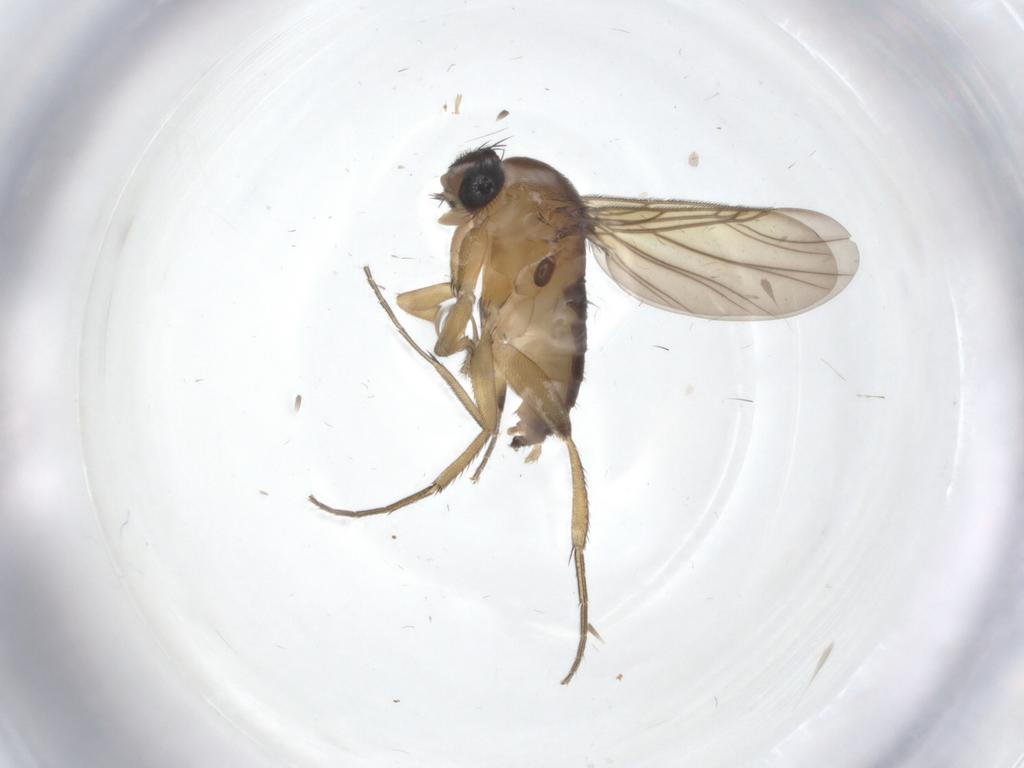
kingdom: Animalia
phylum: Arthropoda
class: Insecta
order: Diptera
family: Phoridae
